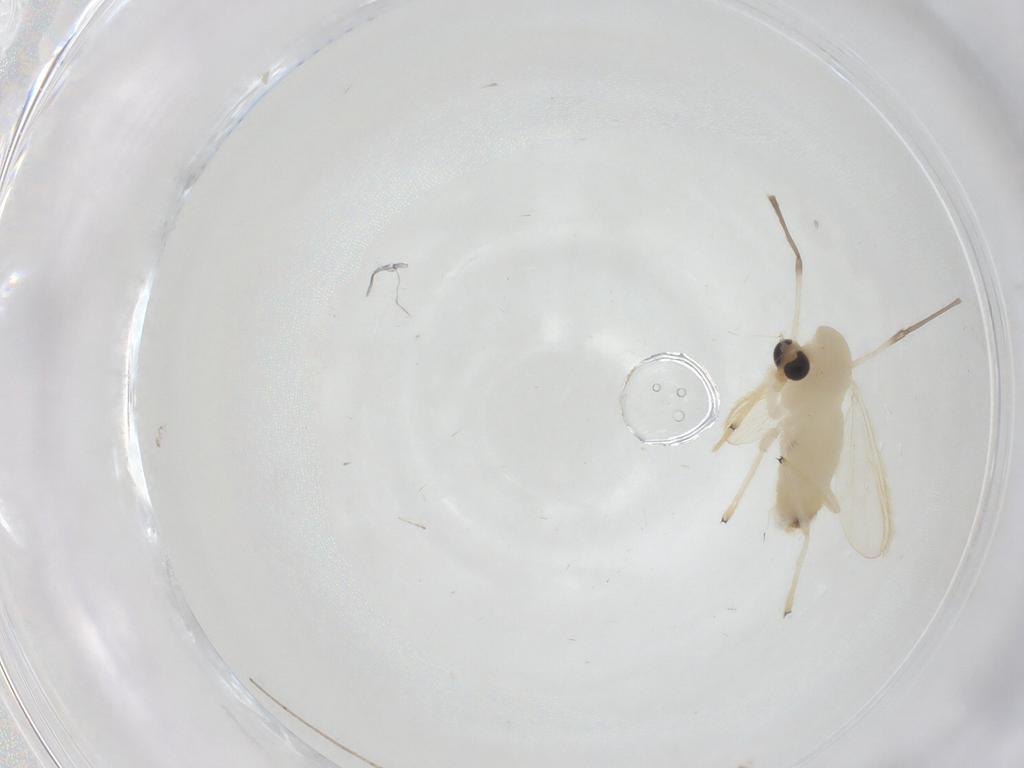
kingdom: Animalia
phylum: Arthropoda
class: Insecta
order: Diptera
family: Chironomidae
